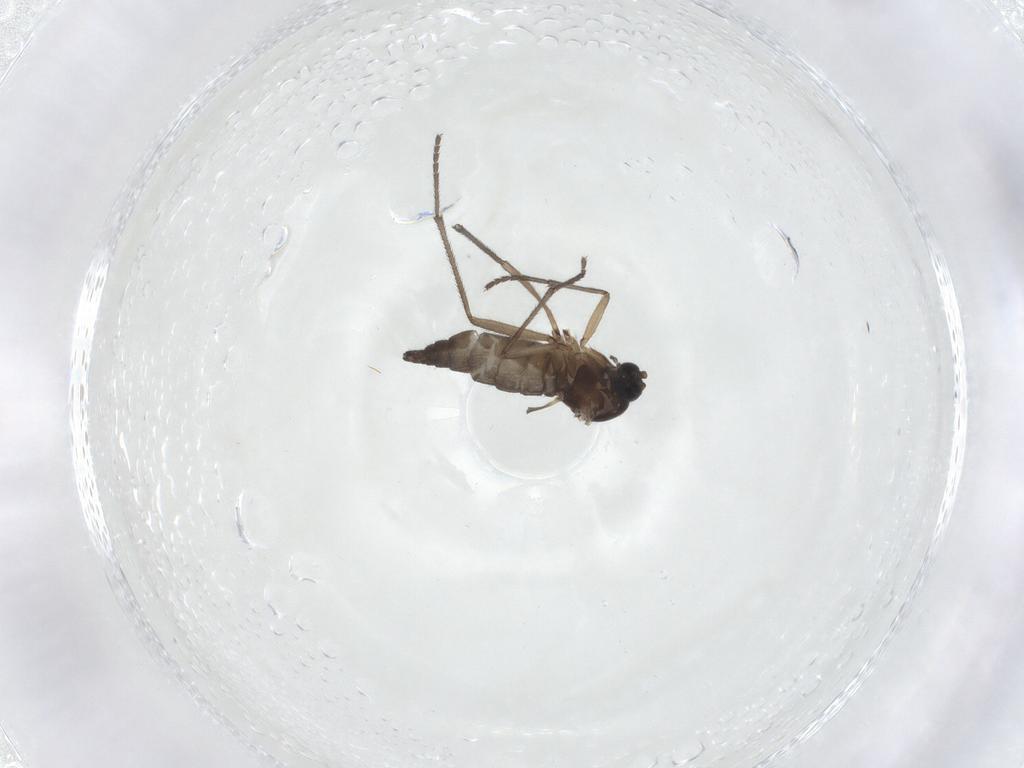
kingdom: Animalia
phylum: Arthropoda
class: Insecta
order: Diptera
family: Sciaridae
